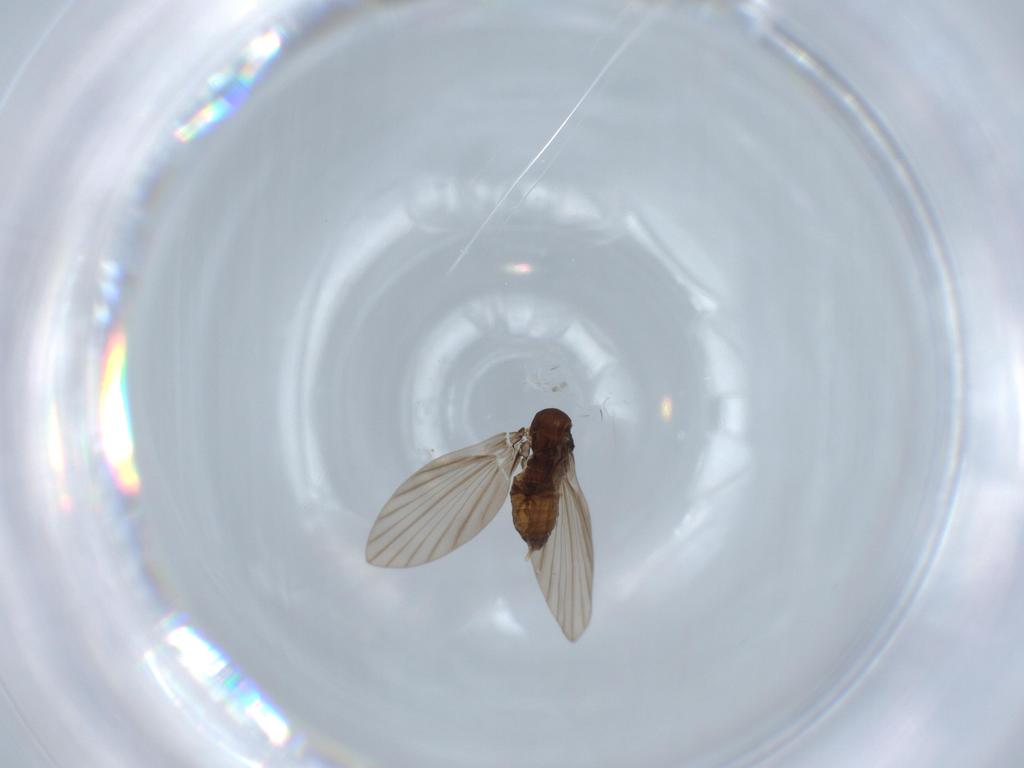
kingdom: Animalia
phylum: Arthropoda
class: Insecta
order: Diptera
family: Psychodidae
